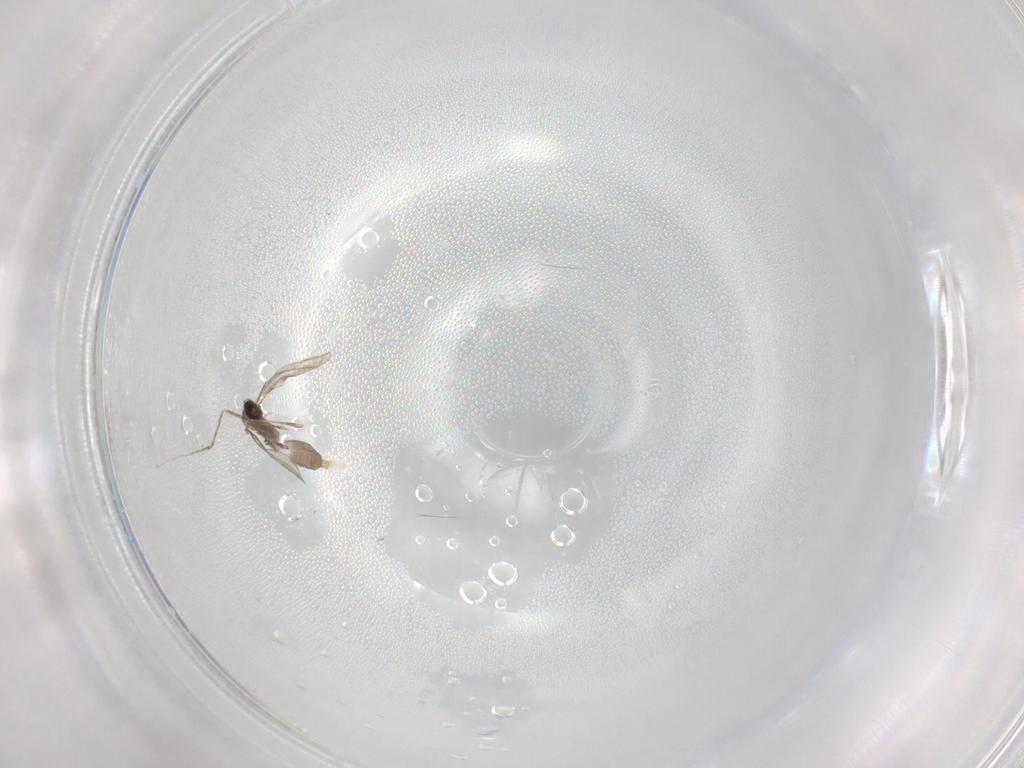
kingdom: Animalia
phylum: Arthropoda
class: Insecta
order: Diptera
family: Cecidomyiidae
